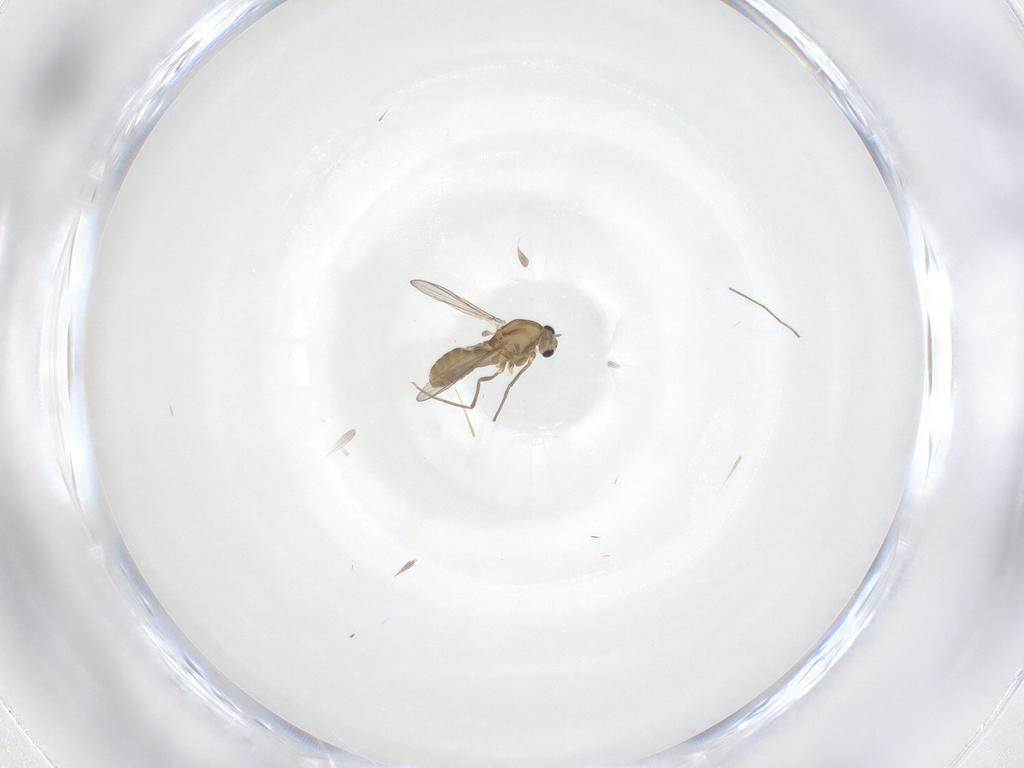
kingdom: Animalia
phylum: Arthropoda
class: Insecta
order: Diptera
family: Chironomidae
